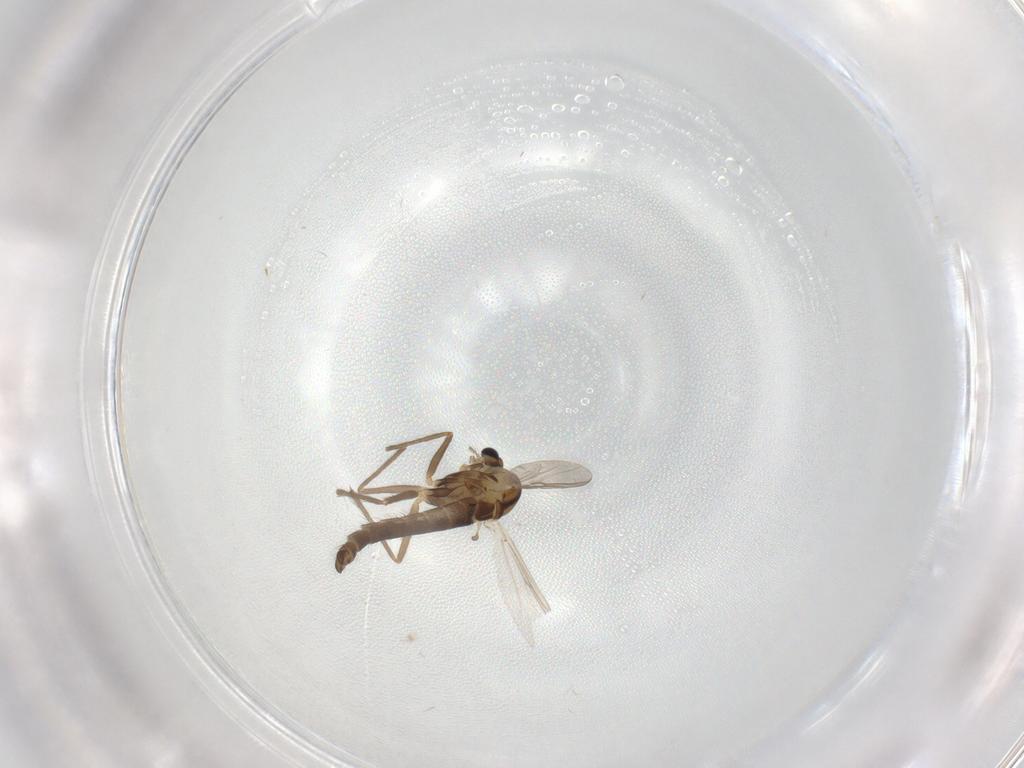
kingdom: Animalia
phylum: Arthropoda
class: Insecta
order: Diptera
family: Chironomidae
